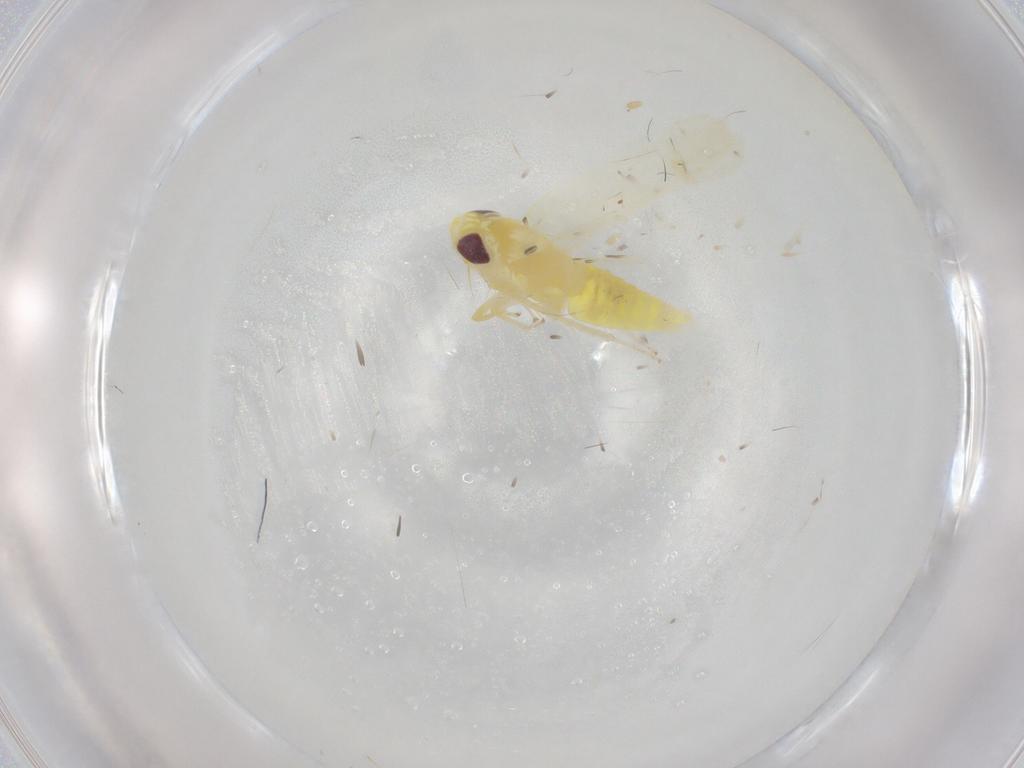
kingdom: Animalia
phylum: Arthropoda
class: Insecta
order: Hemiptera
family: Cicadellidae
